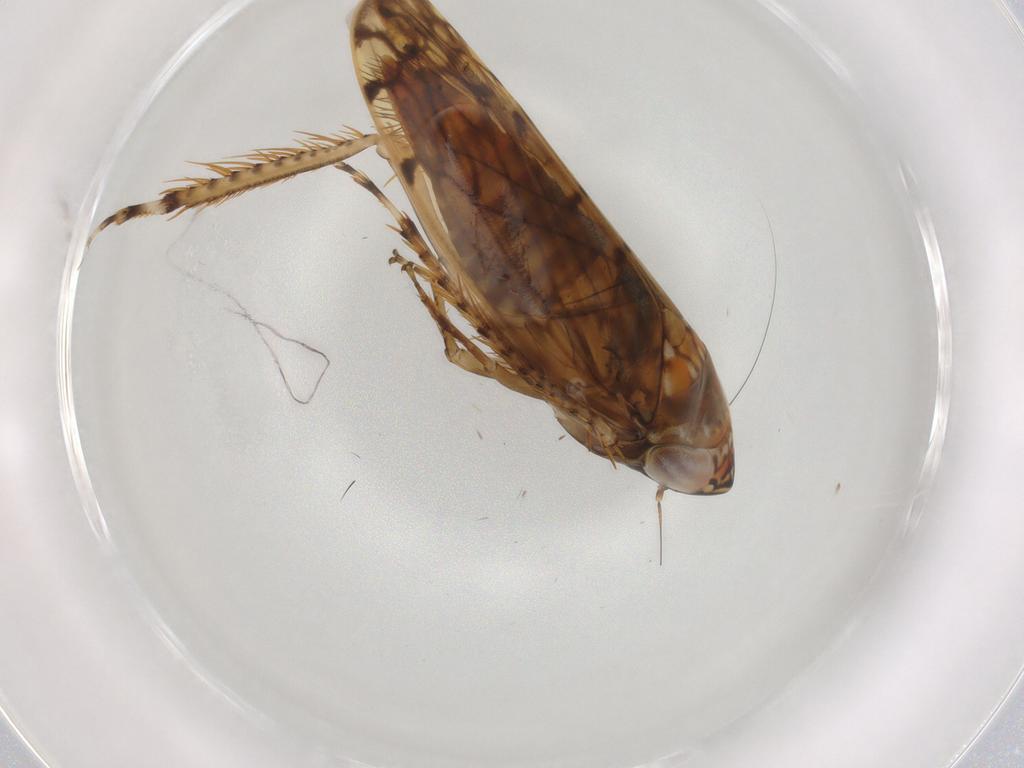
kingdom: Animalia
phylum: Arthropoda
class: Insecta
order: Hemiptera
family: Cicadellidae
